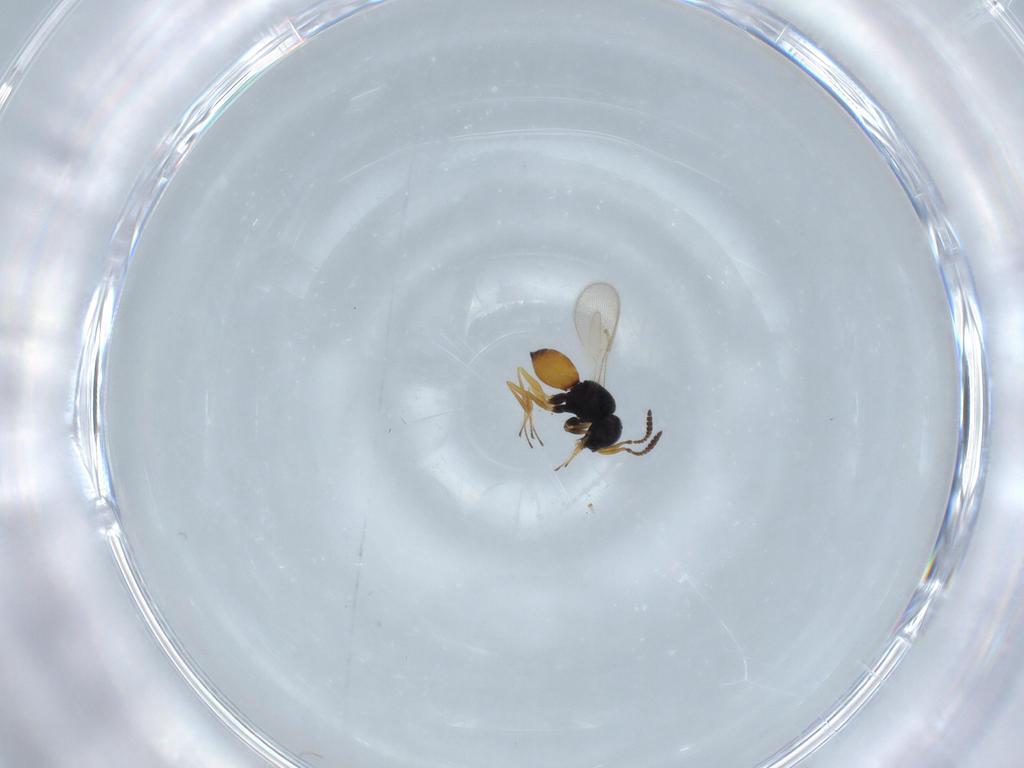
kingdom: Animalia
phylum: Arthropoda
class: Insecta
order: Hymenoptera
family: Scelionidae
